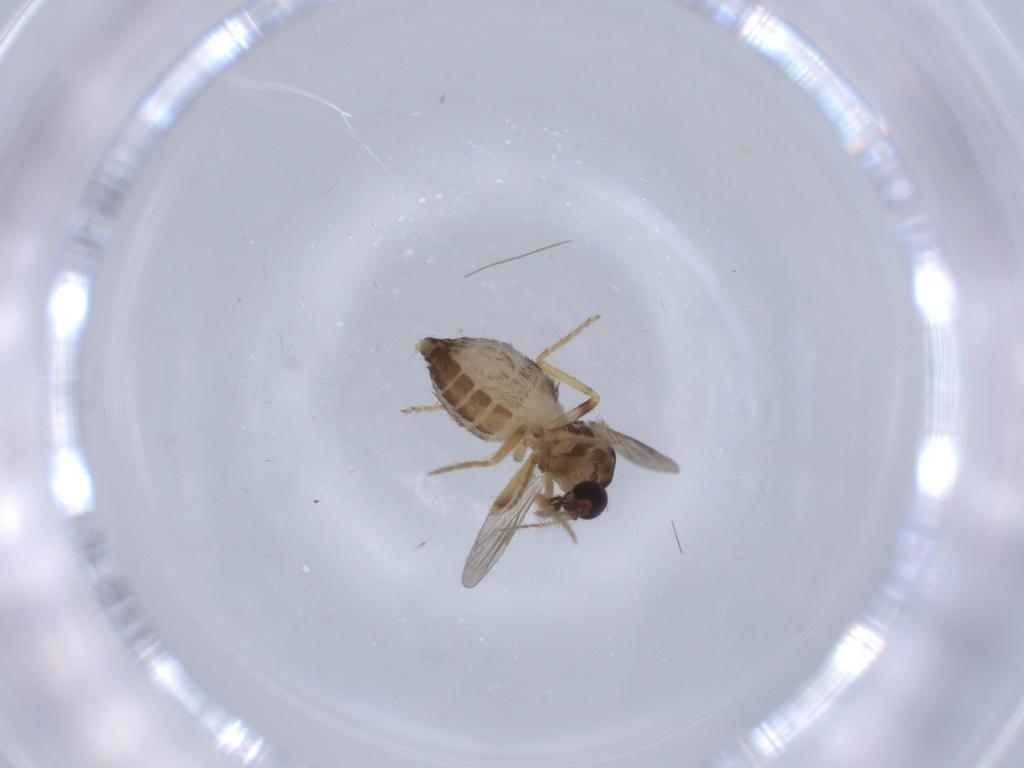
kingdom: Animalia
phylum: Arthropoda
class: Insecta
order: Diptera
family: Ceratopogonidae
